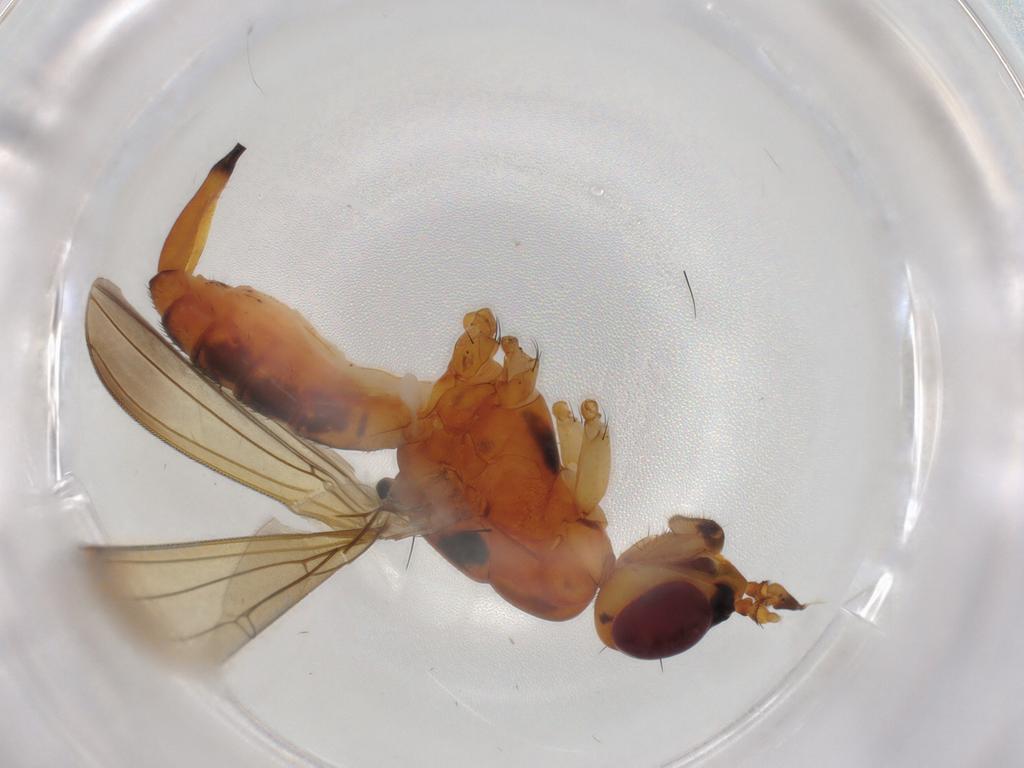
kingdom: Animalia
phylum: Arthropoda
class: Insecta
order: Diptera
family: Neriidae
